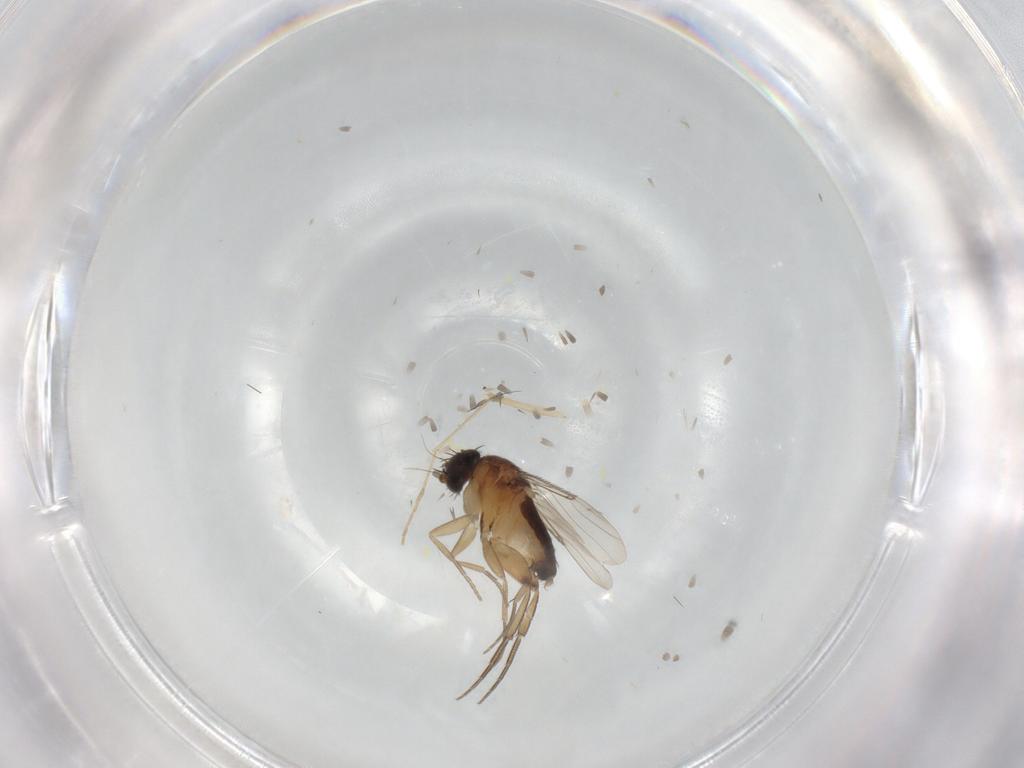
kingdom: Animalia
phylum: Arthropoda
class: Insecta
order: Diptera
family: Phoridae
